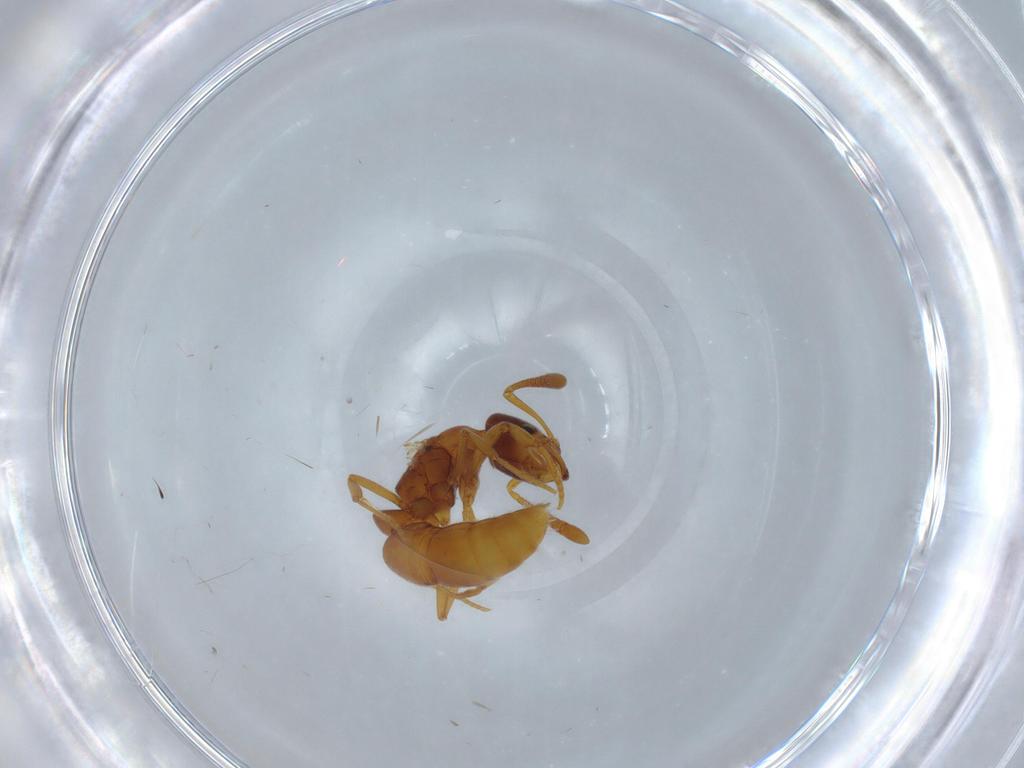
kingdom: Animalia
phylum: Arthropoda
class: Insecta
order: Hymenoptera
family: Formicidae
